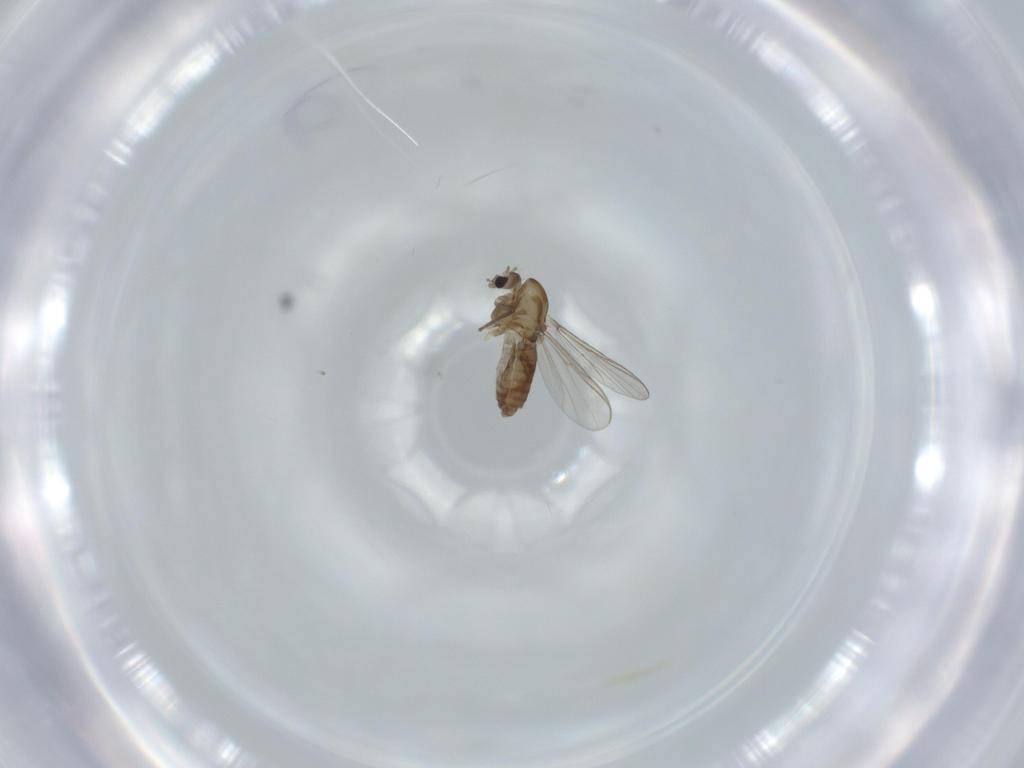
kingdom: Animalia
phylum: Arthropoda
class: Insecta
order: Diptera
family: Chironomidae
